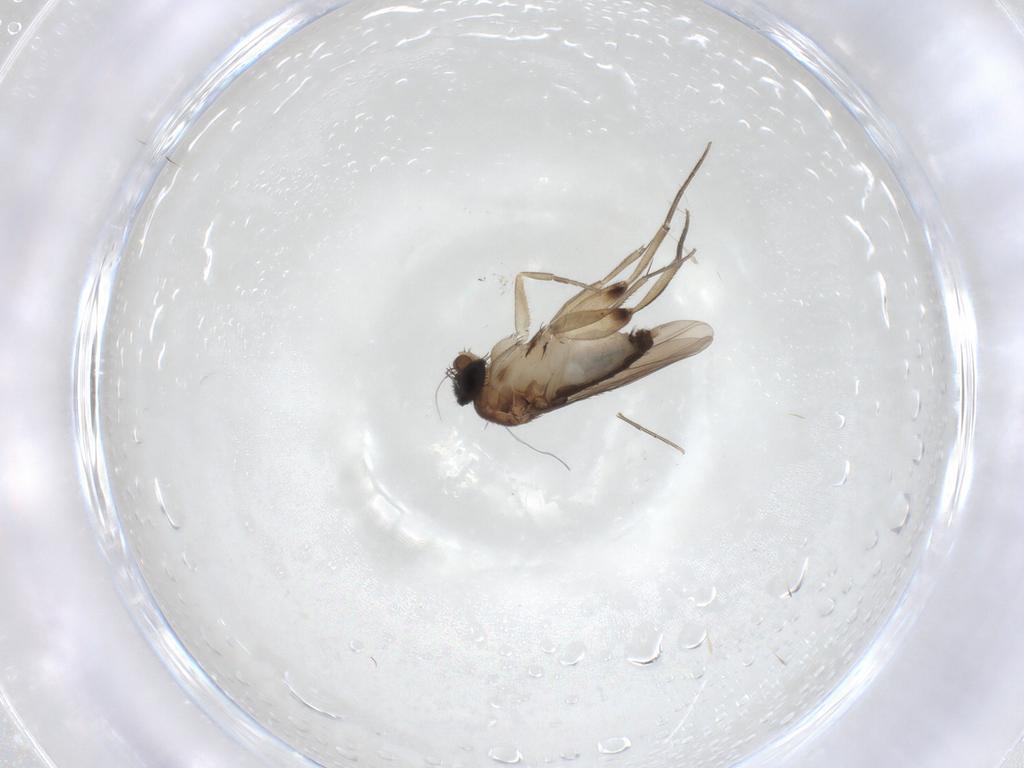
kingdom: Animalia
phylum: Arthropoda
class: Insecta
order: Diptera
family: Phoridae
